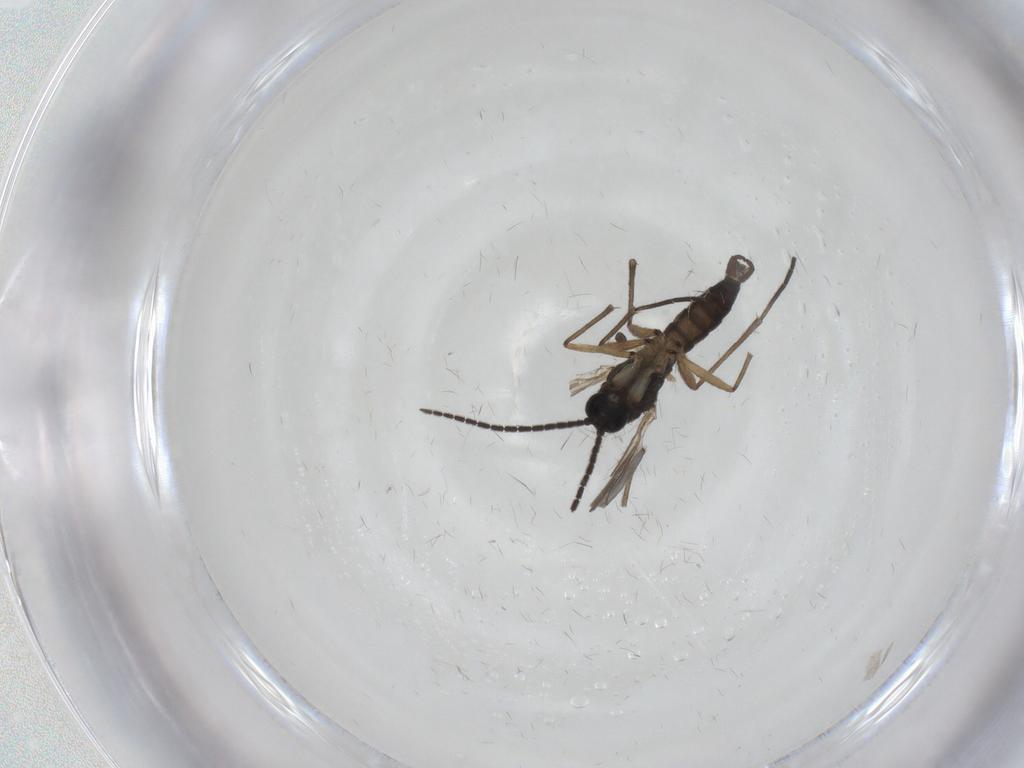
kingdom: Animalia
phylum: Arthropoda
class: Insecta
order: Diptera
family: Sciaridae
